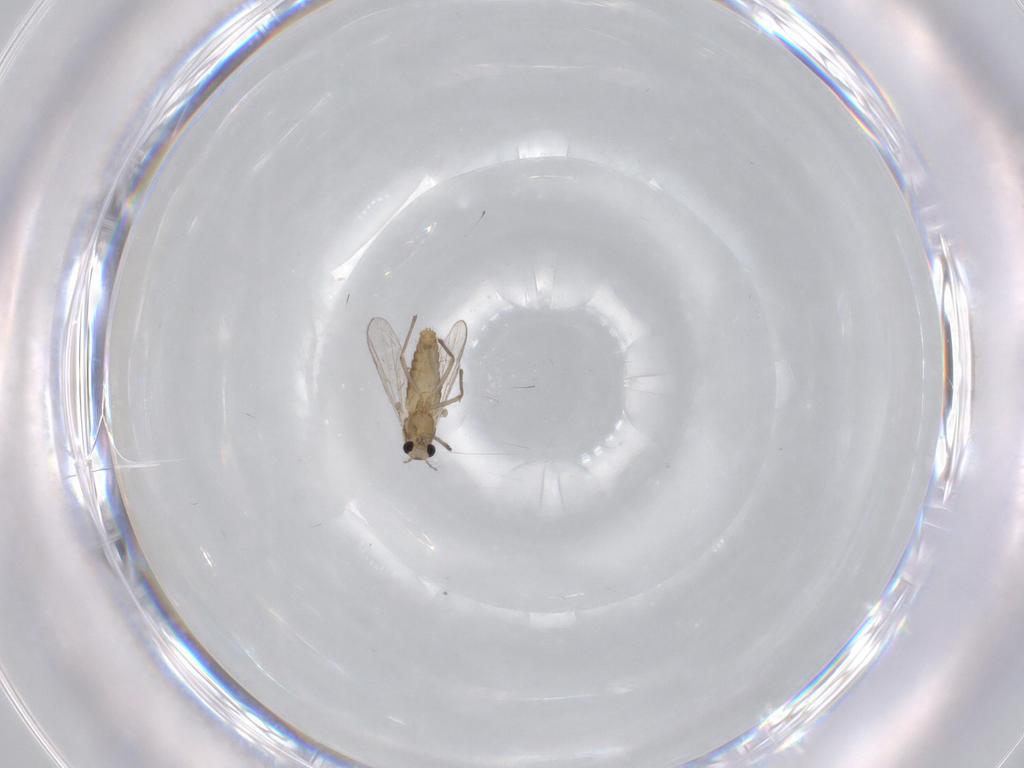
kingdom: Animalia
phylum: Arthropoda
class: Insecta
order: Diptera
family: Chironomidae
